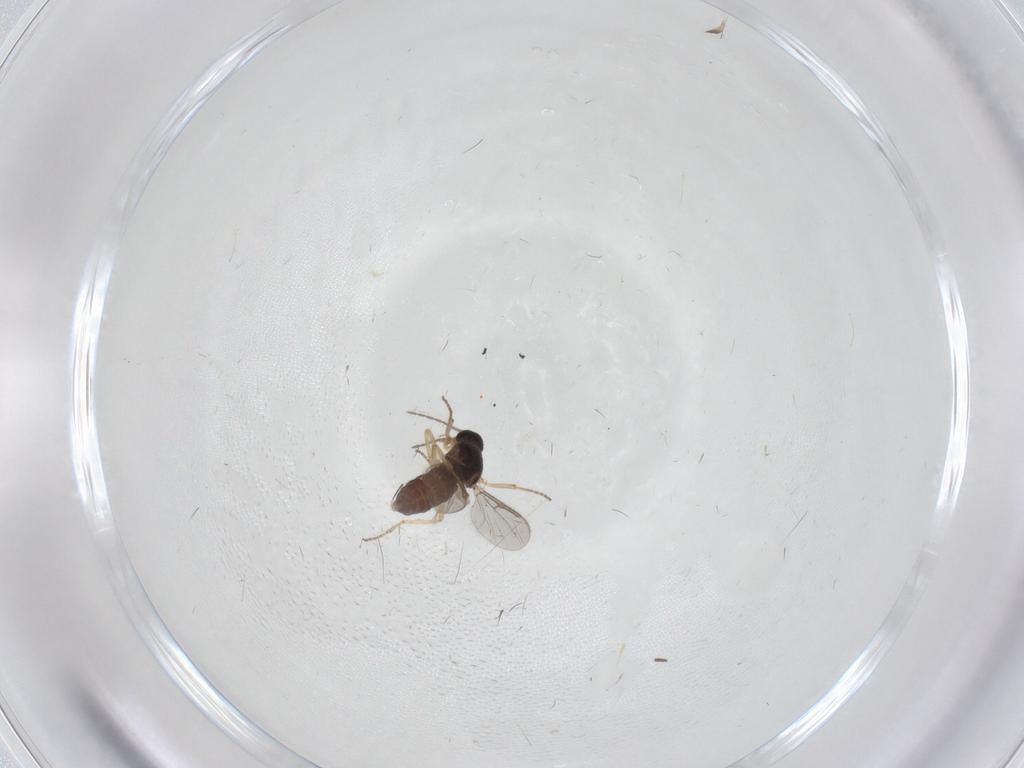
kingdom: Animalia
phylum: Arthropoda
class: Insecta
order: Diptera
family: Ceratopogonidae
